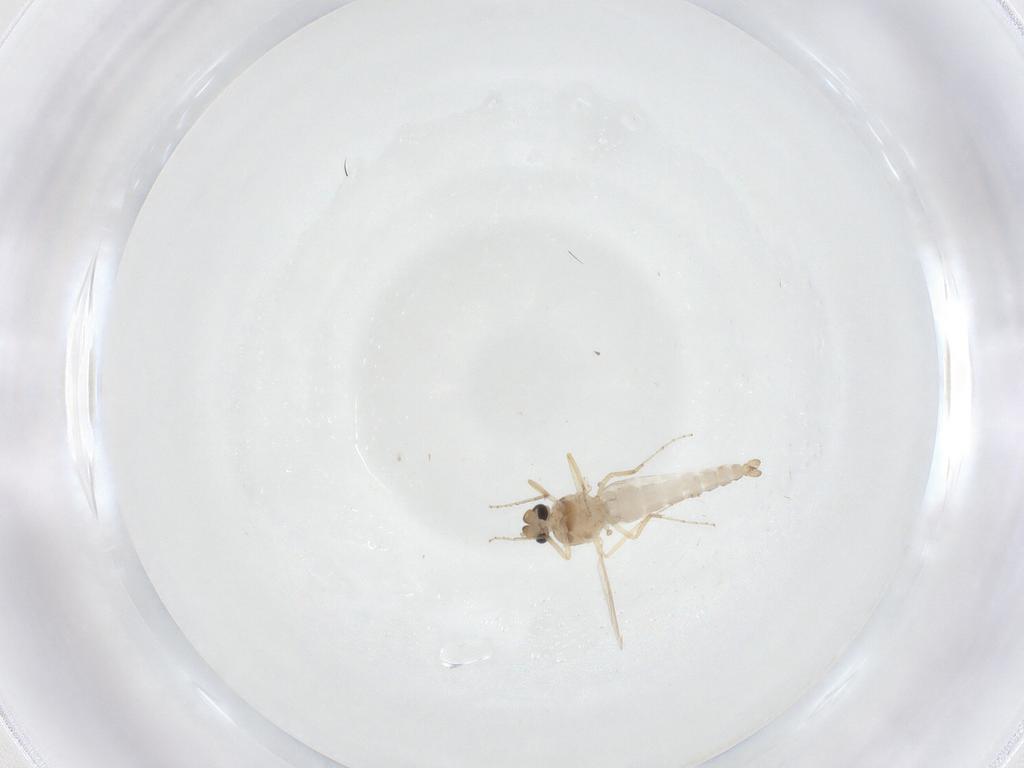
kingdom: Animalia
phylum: Arthropoda
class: Insecta
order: Diptera
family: Ceratopogonidae
